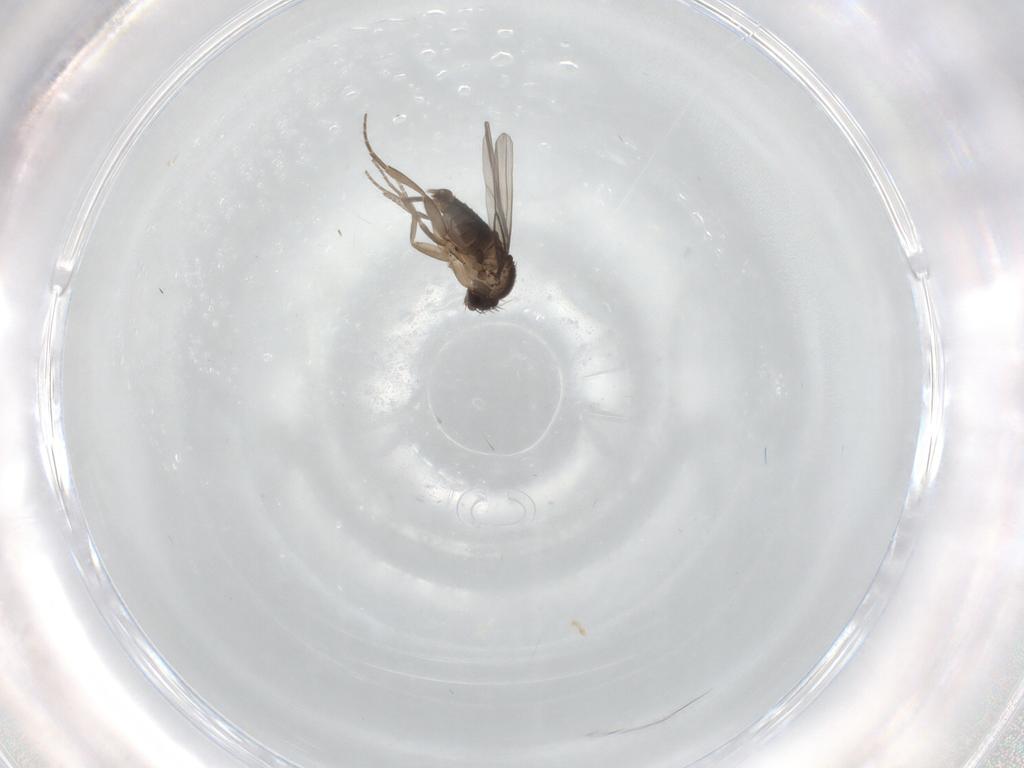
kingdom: Animalia
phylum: Arthropoda
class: Insecta
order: Diptera
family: Phoridae
